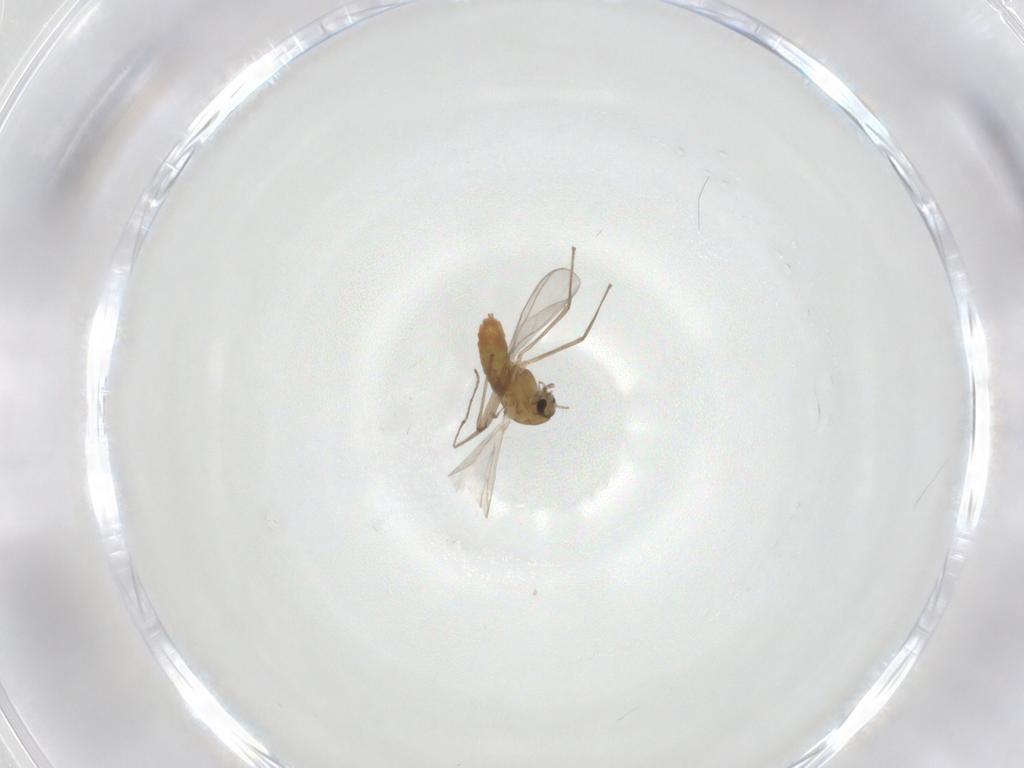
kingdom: Animalia
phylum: Arthropoda
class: Insecta
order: Diptera
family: Chironomidae
